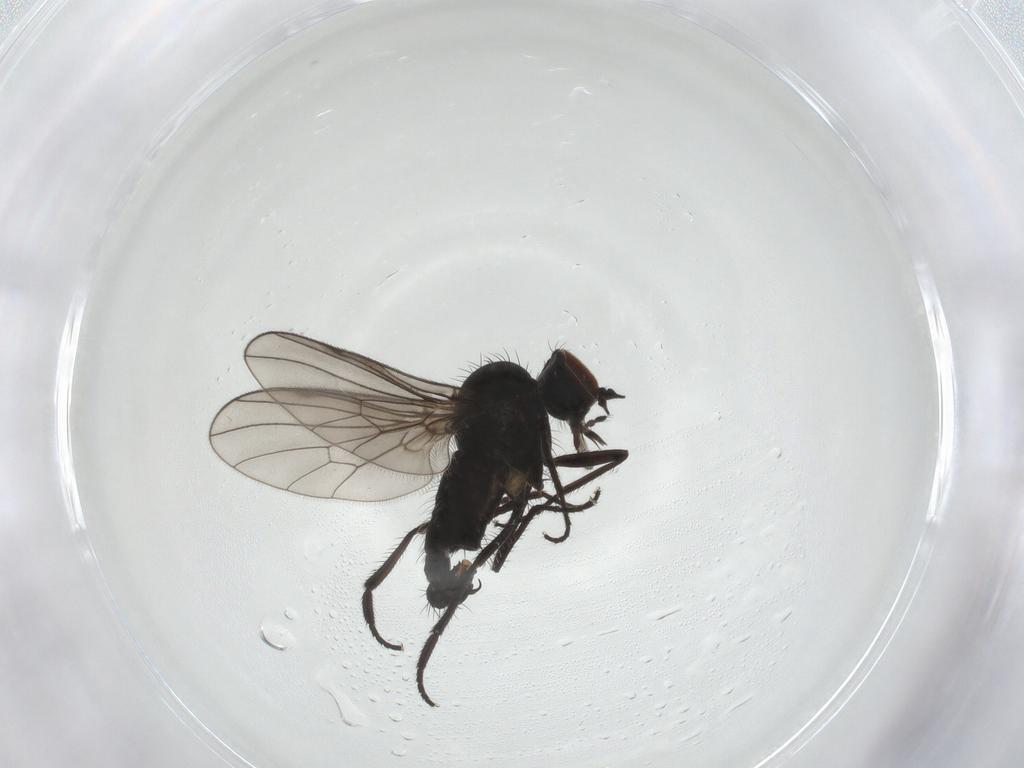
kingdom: Animalia
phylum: Arthropoda
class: Insecta
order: Diptera
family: Dolichopodidae
